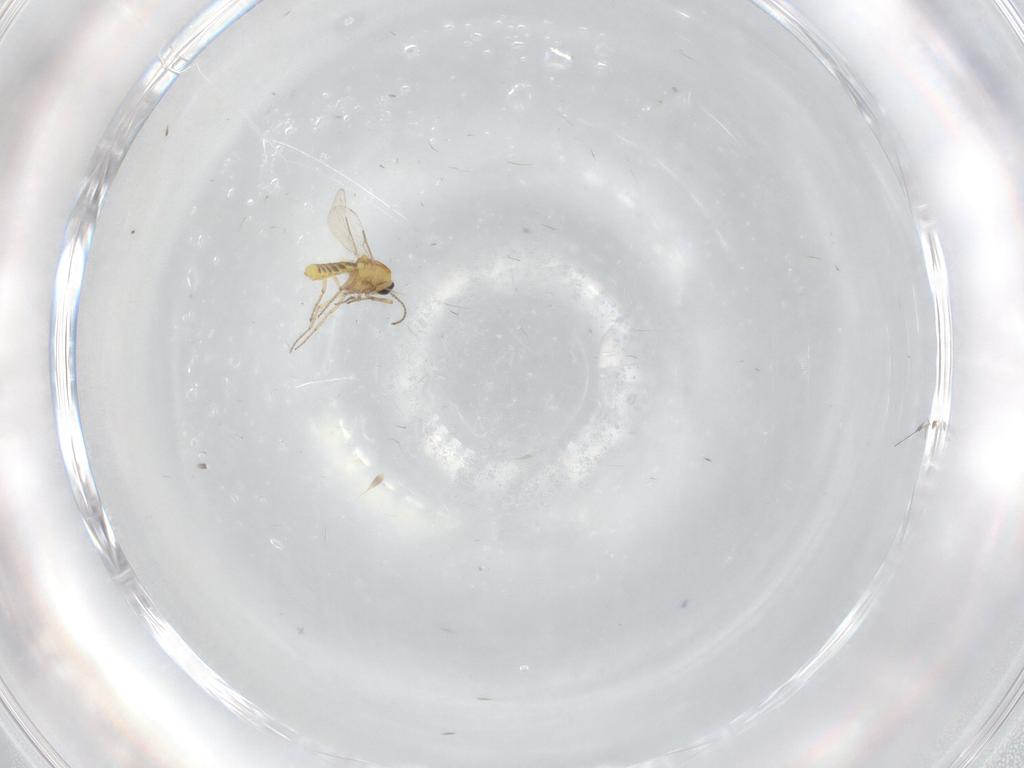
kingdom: Animalia
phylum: Arthropoda
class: Insecta
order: Diptera
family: Ceratopogonidae
